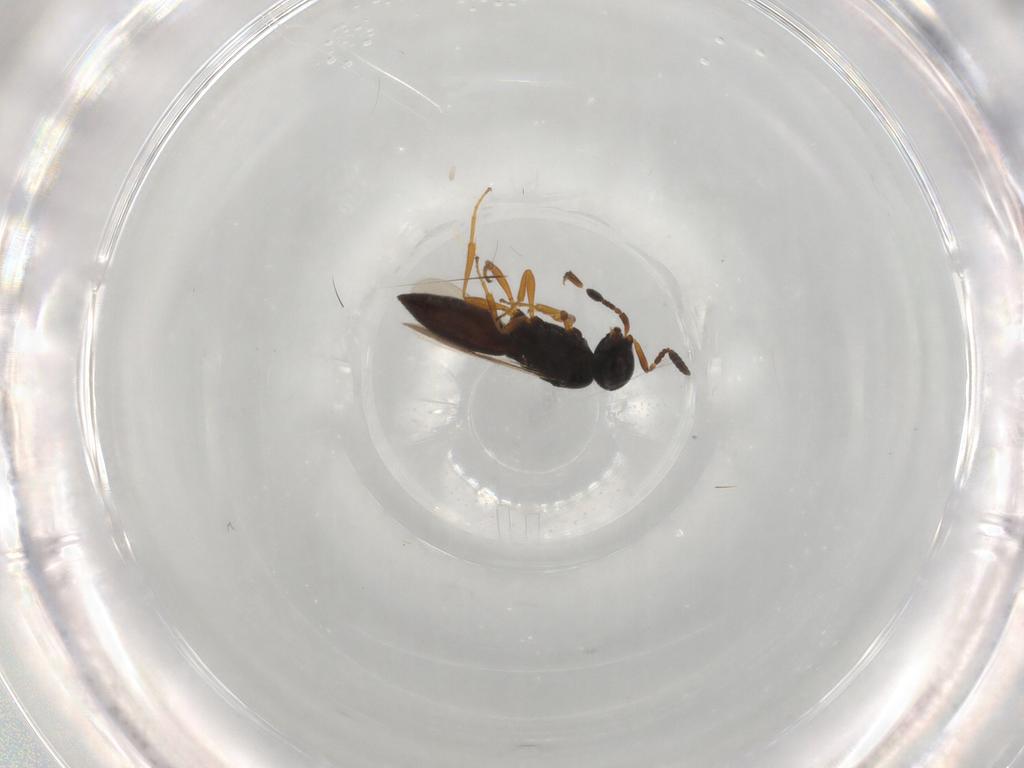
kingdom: Animalia
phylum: Arthropoda
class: Insecta
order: Hymenoptera
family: Scelionidae
